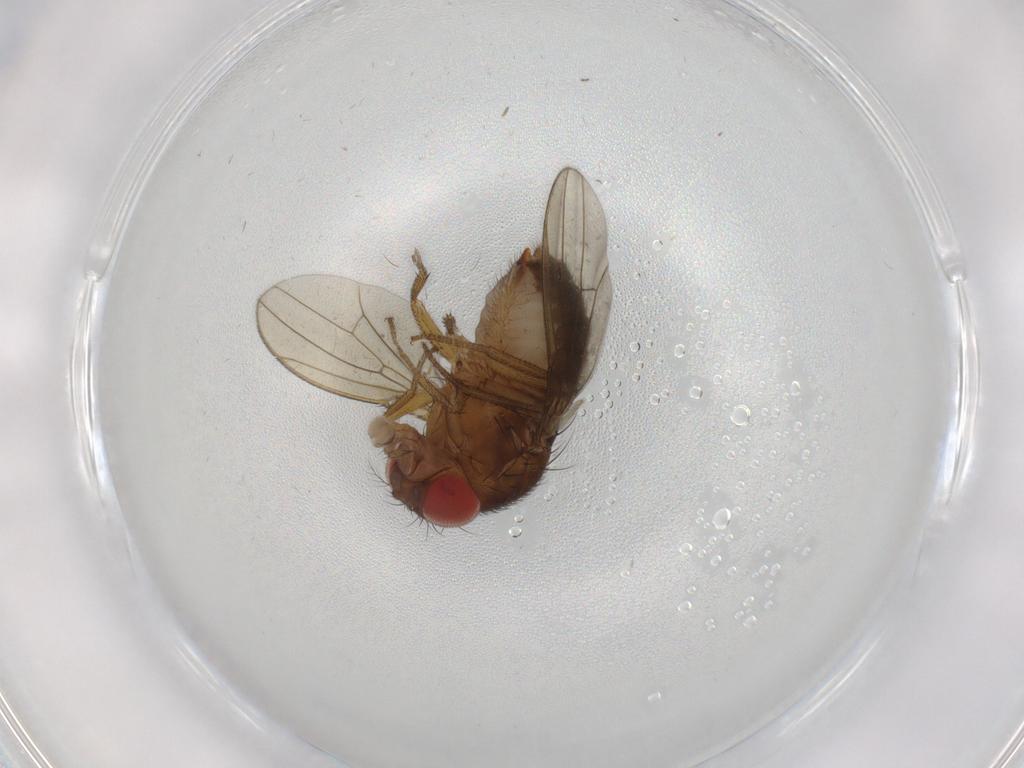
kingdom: Animalia
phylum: Arthropoda
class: Insecta
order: Diptera
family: Drosophilidae
